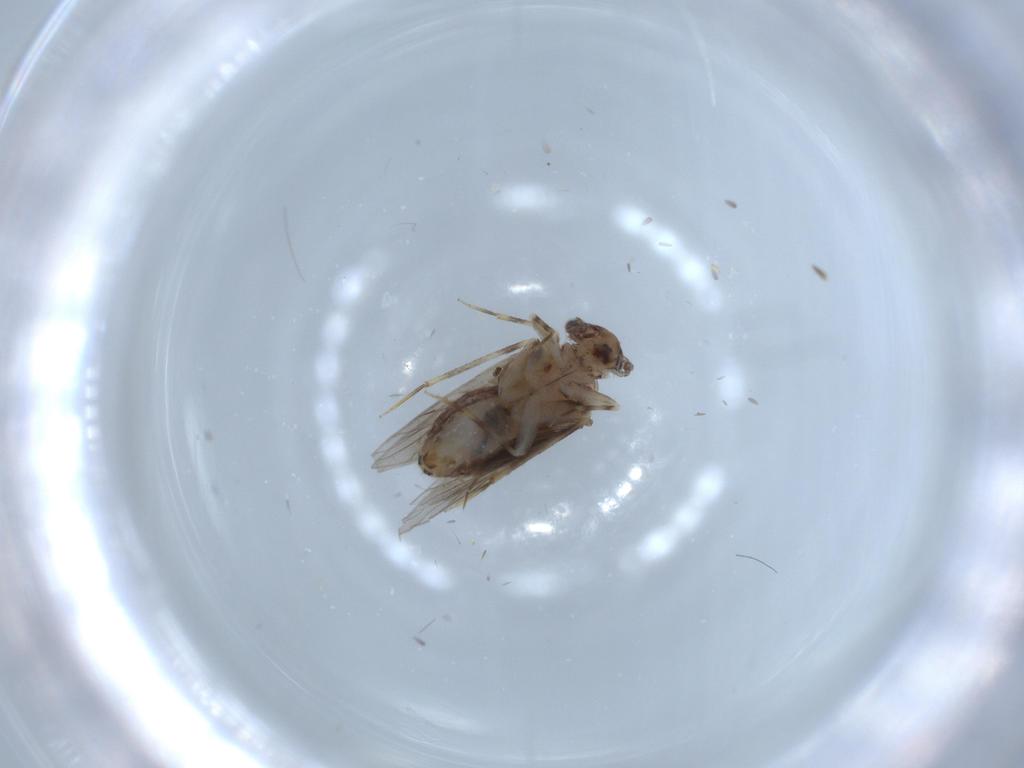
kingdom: Animalia
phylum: Arthropoda
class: Insecta
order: Psocodea
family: Lepidopsocidae
